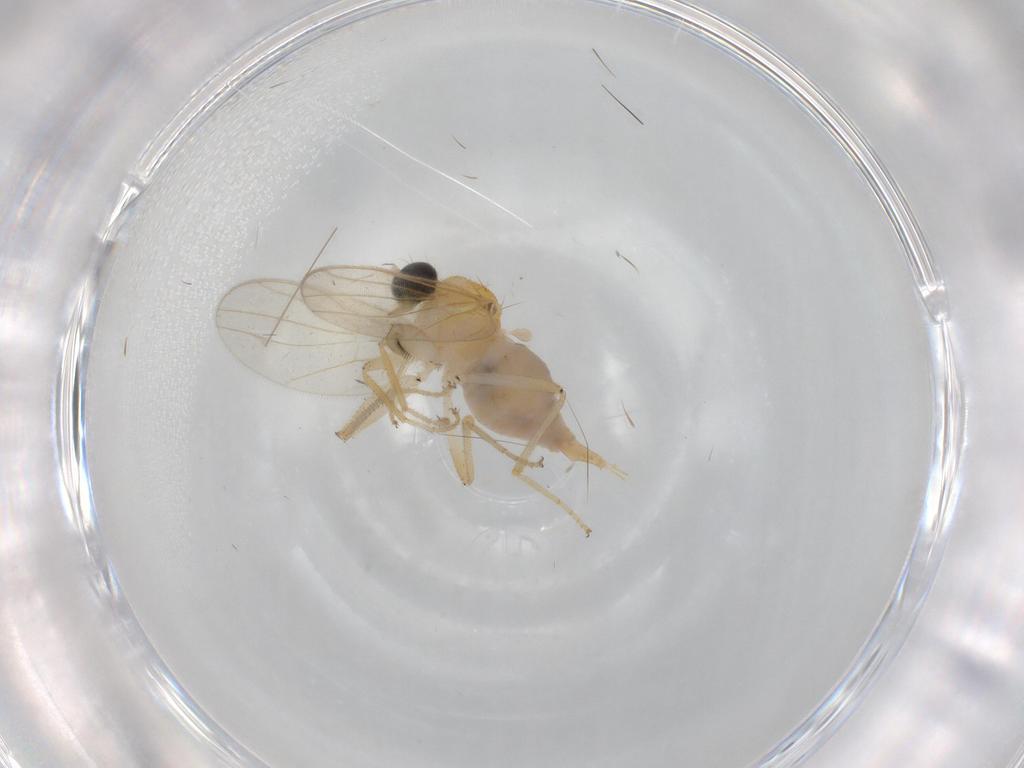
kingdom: Animalia
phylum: Arthropoda
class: Insecta
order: Diptera
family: Hybotidae
